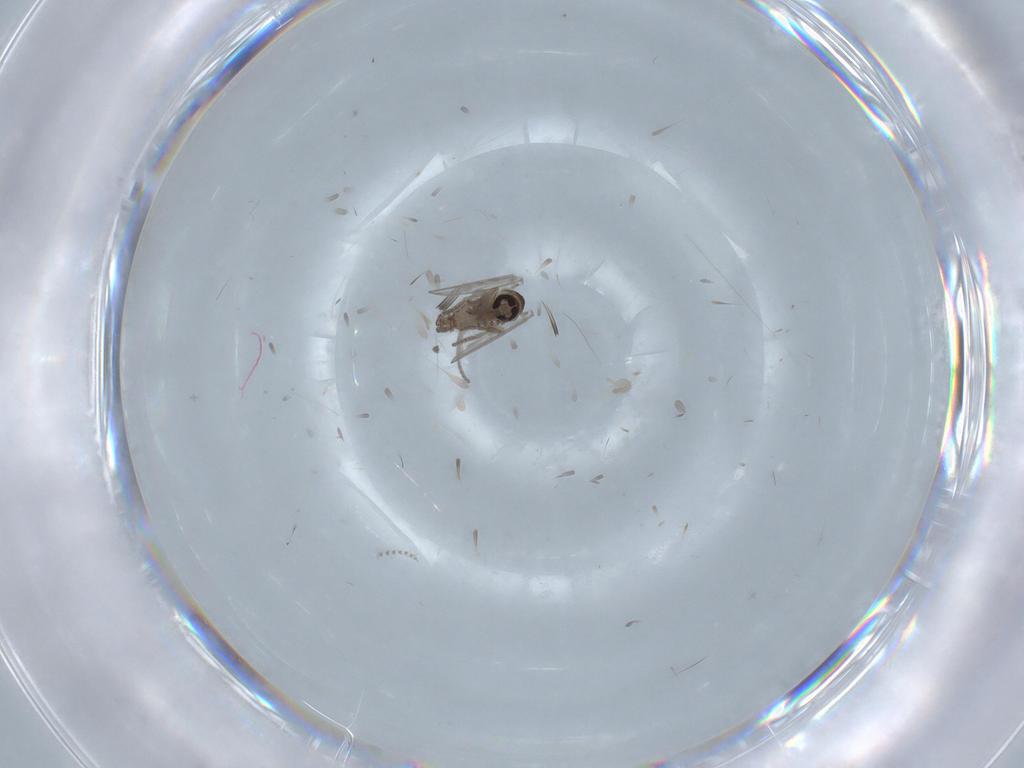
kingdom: Animalia
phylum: Arthropoda
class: Insecta
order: Diptera
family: Psychodidae
